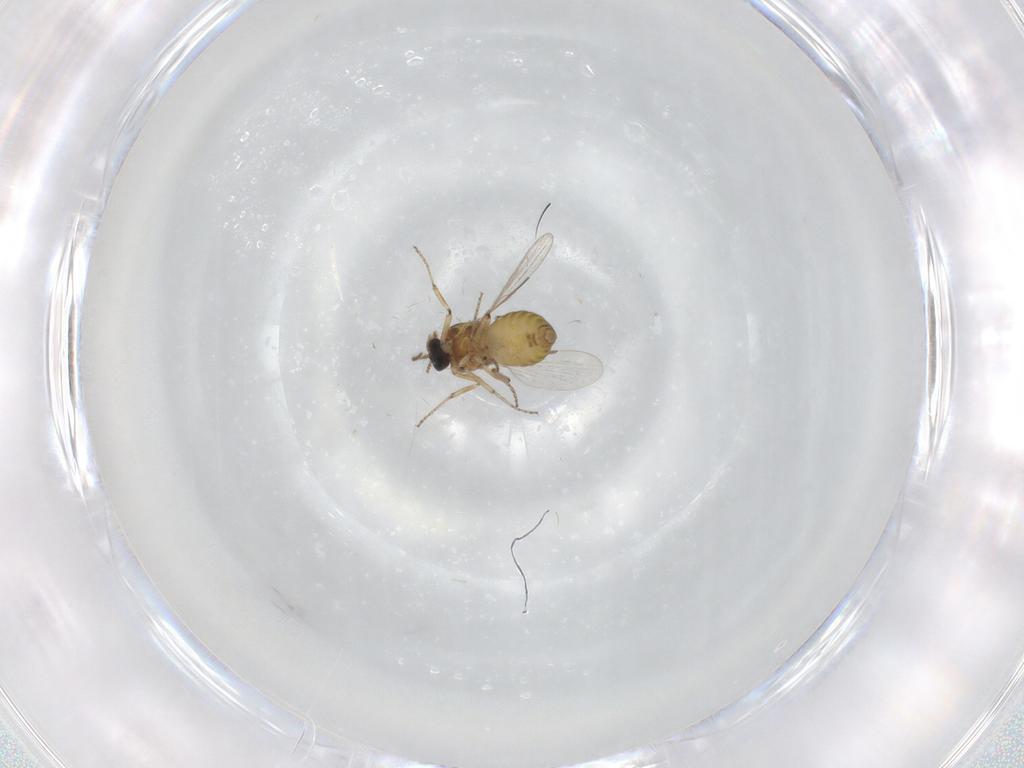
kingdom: Animalia
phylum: Arthropoda
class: Insecta
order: Diptera
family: Ceratopogonidae
